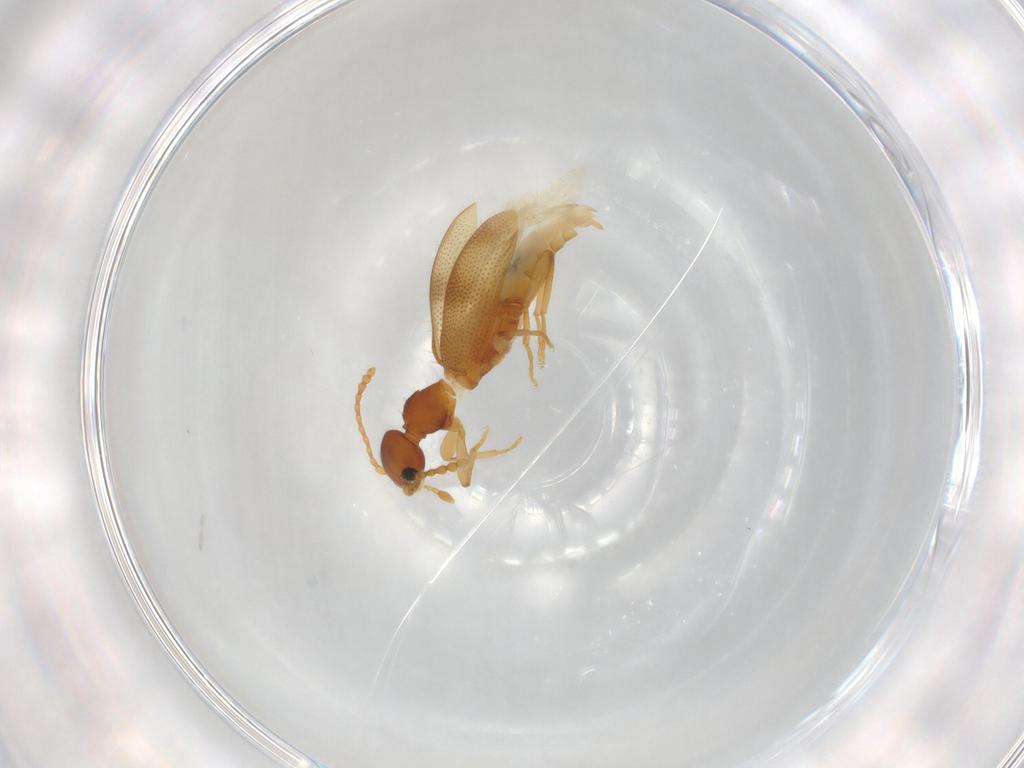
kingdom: Animalia
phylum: Arthropoda
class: Insecta
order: Coleoptera
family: Anthicidae
